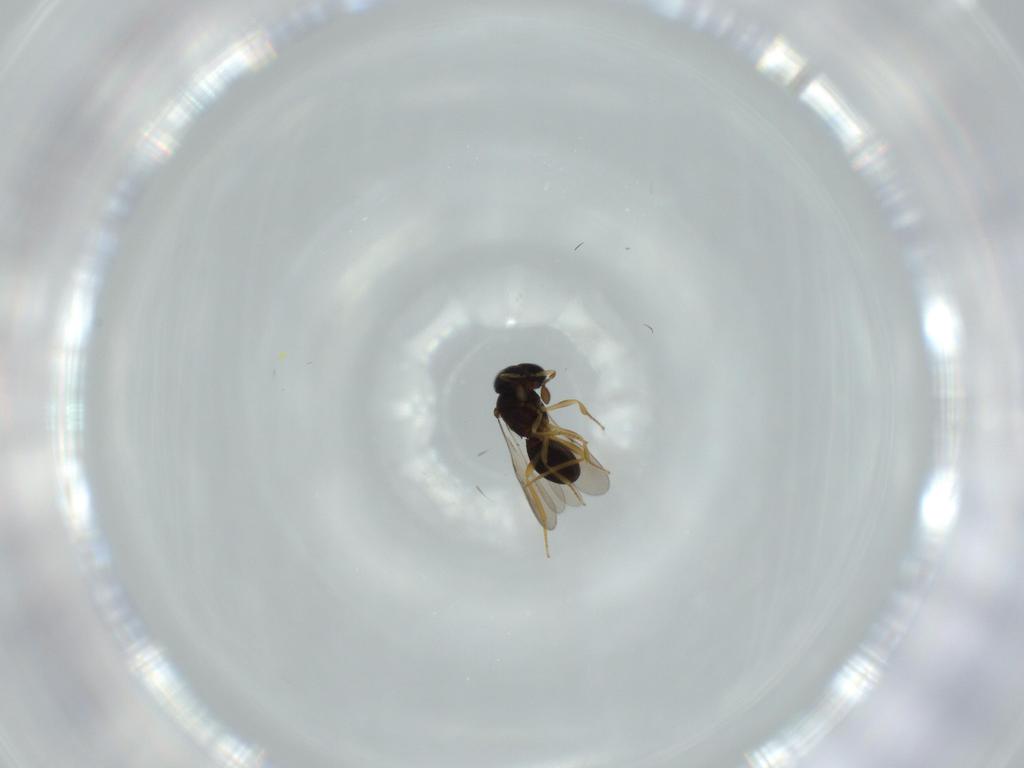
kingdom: Animalia
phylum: Arthropoda
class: Insecta
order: Hymenoptera
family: Scelionidae
